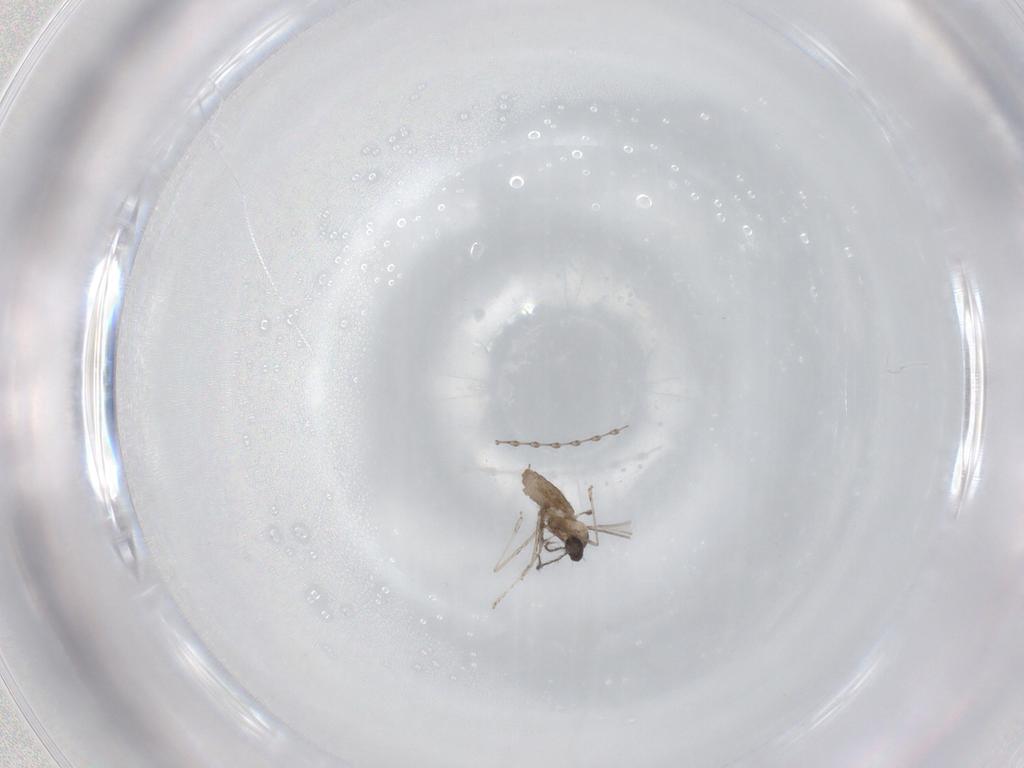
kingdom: Animalia
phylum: Arthropoda
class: Insecta
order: Diptera
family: Cecidomyiidae
